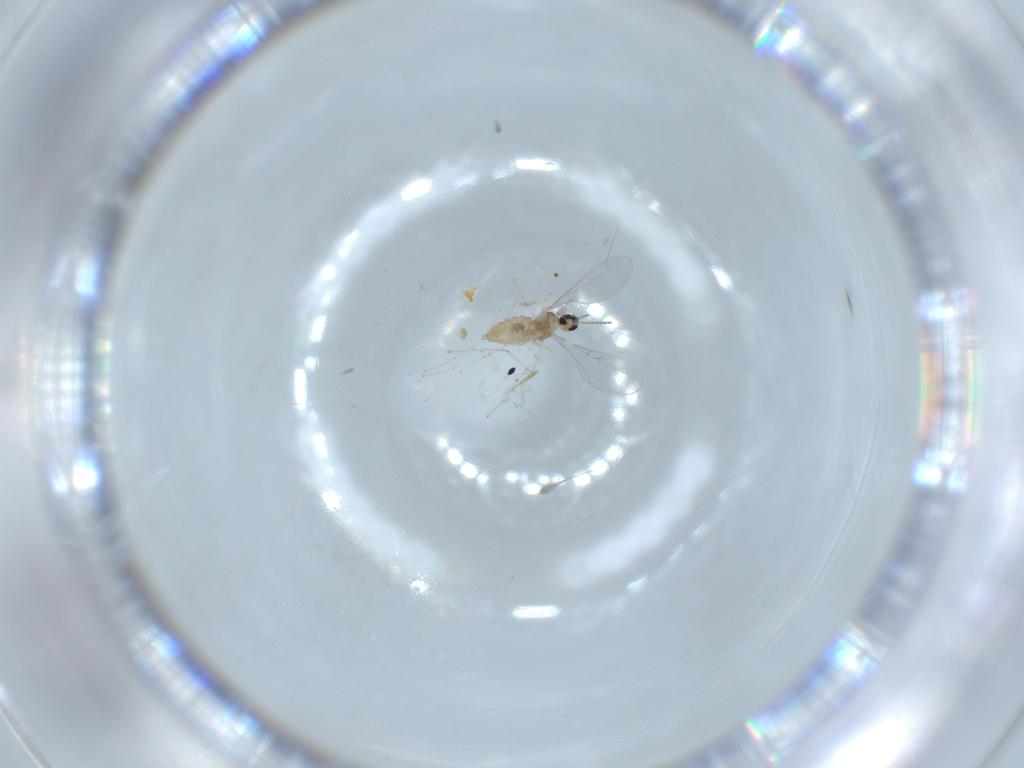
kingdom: Animalia
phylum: Arthropoda
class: Insecta
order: Diptera
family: Cecidomyiidae
